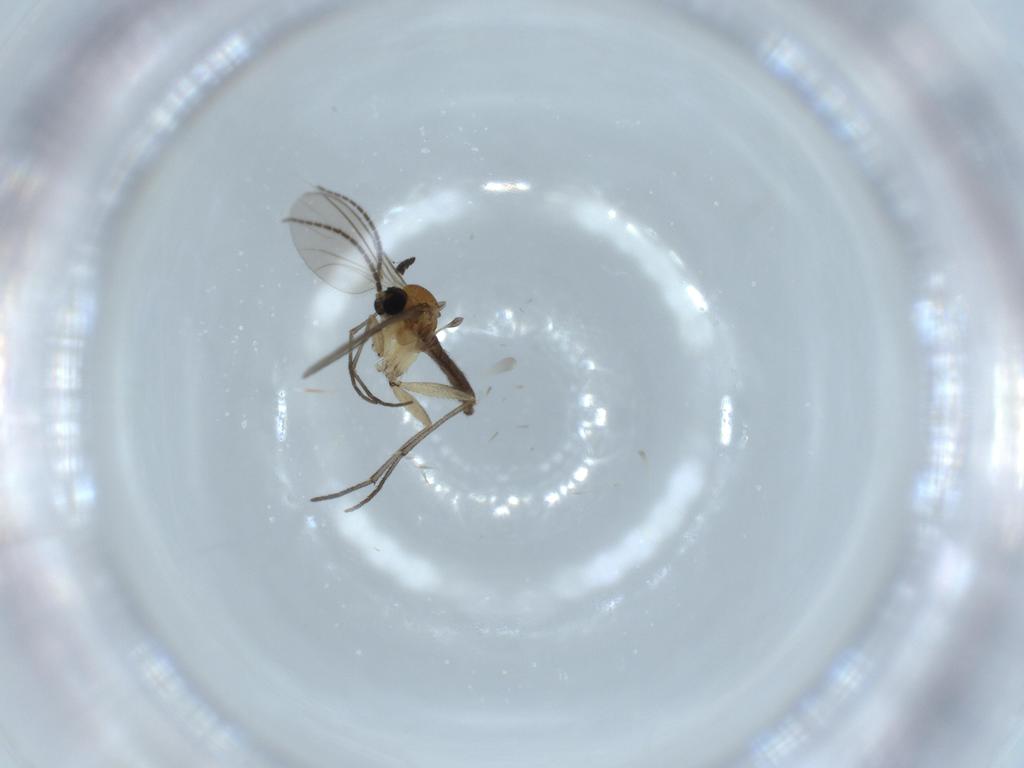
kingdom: Animalia
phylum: Arthropoda
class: Insecta
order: Diptera
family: Sciaridae
